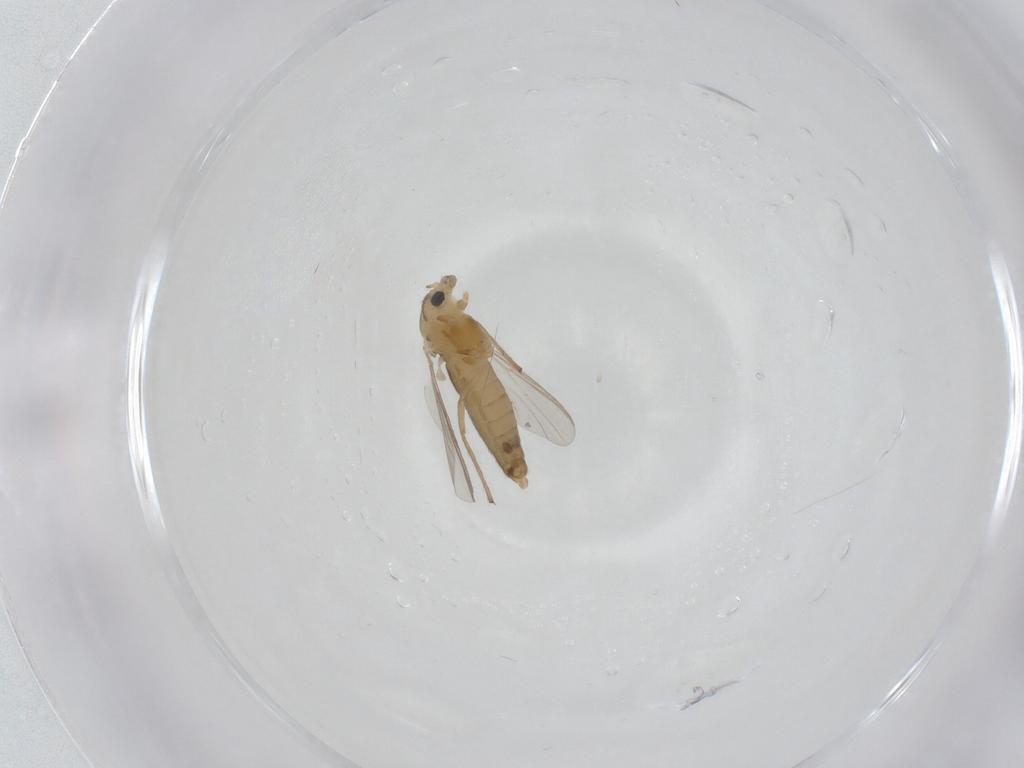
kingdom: Animalia
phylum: Arthropoda
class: Insecta
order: Diptera
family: Chironomidae
